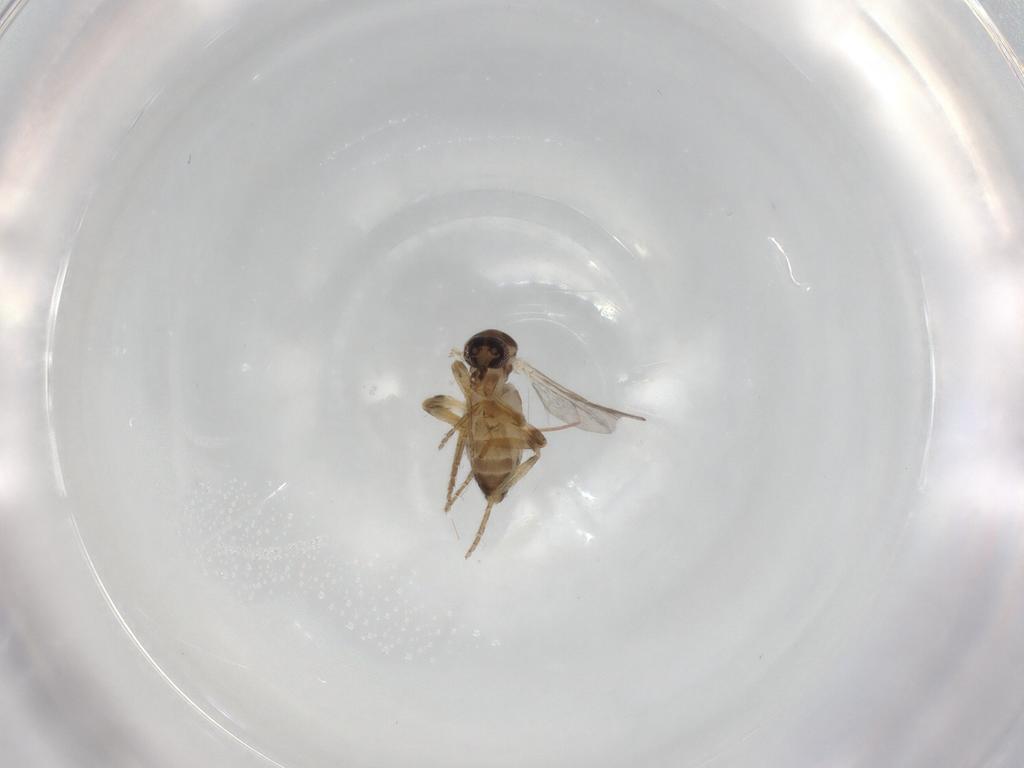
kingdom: Animalia
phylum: Arthropoda
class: Insecta
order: Diptera
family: Ceratopogonidae
